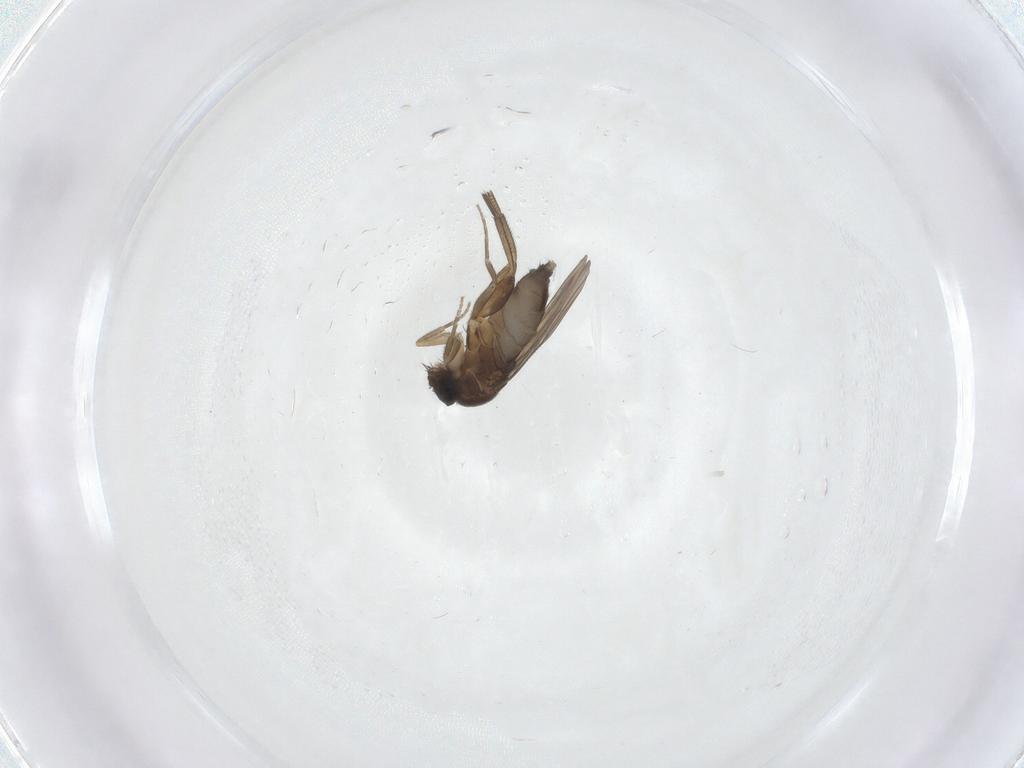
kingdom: Animalia
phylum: Arthropoda
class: Insecta
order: Diptera
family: Phoridae
